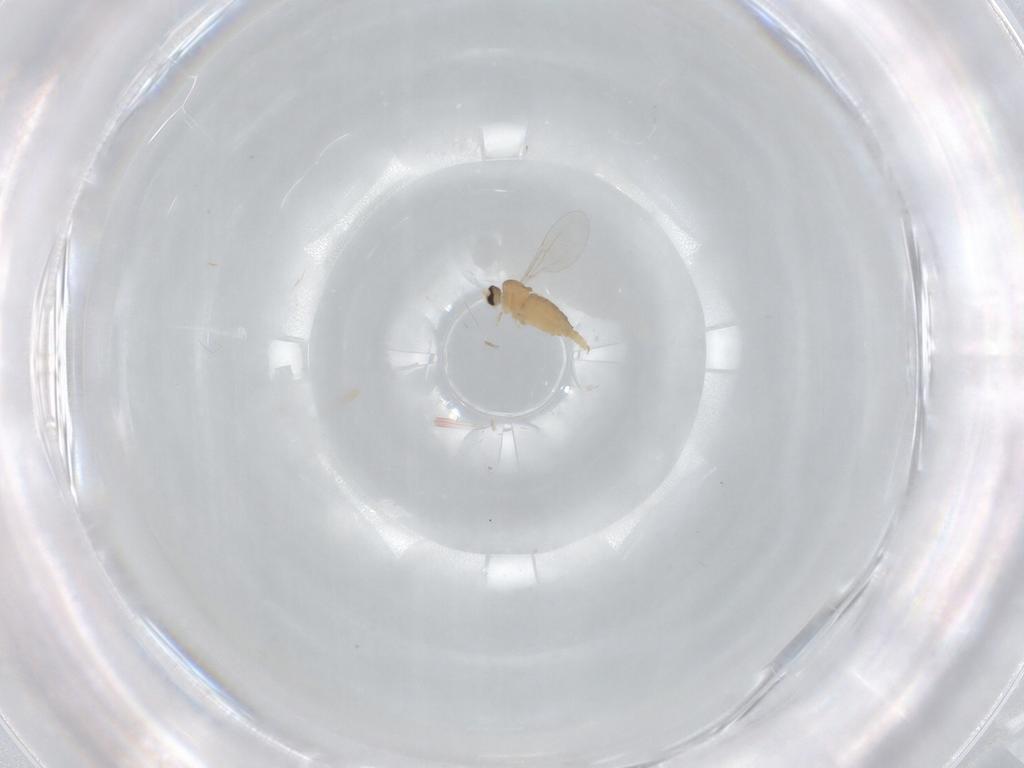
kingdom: Animalia
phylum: Arthropoda
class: Insecta
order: Diptera
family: Cecidomyiidae
